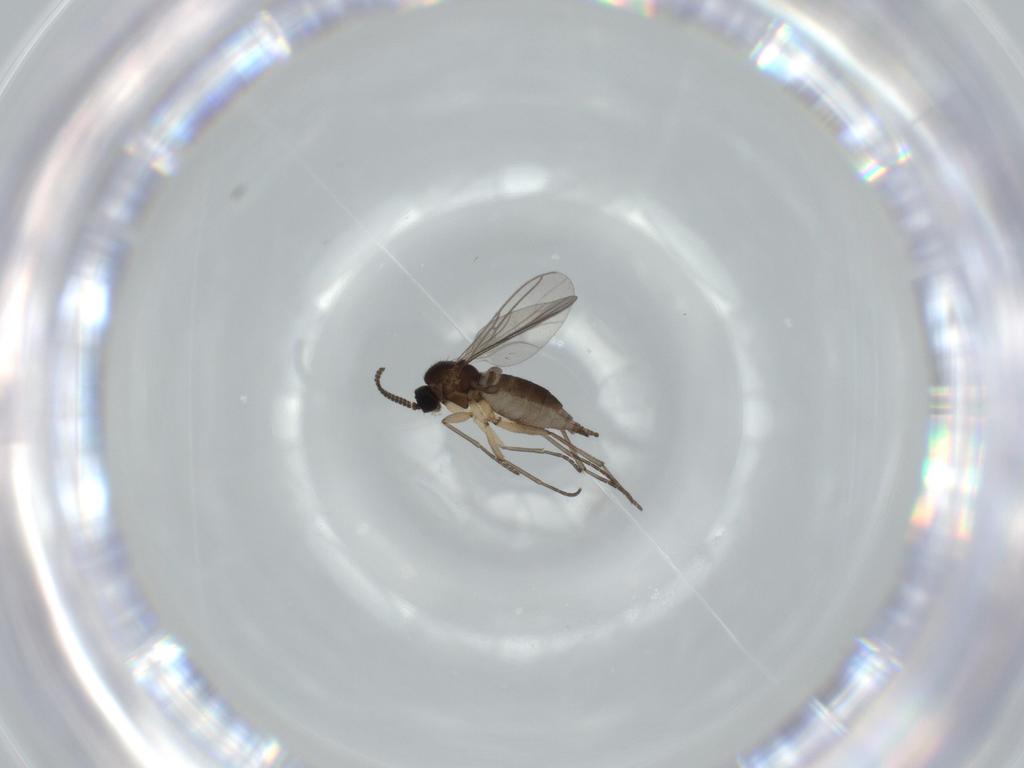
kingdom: Animalia
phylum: Arthropoda
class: Insecta
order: Diptera
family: Sciaridae
